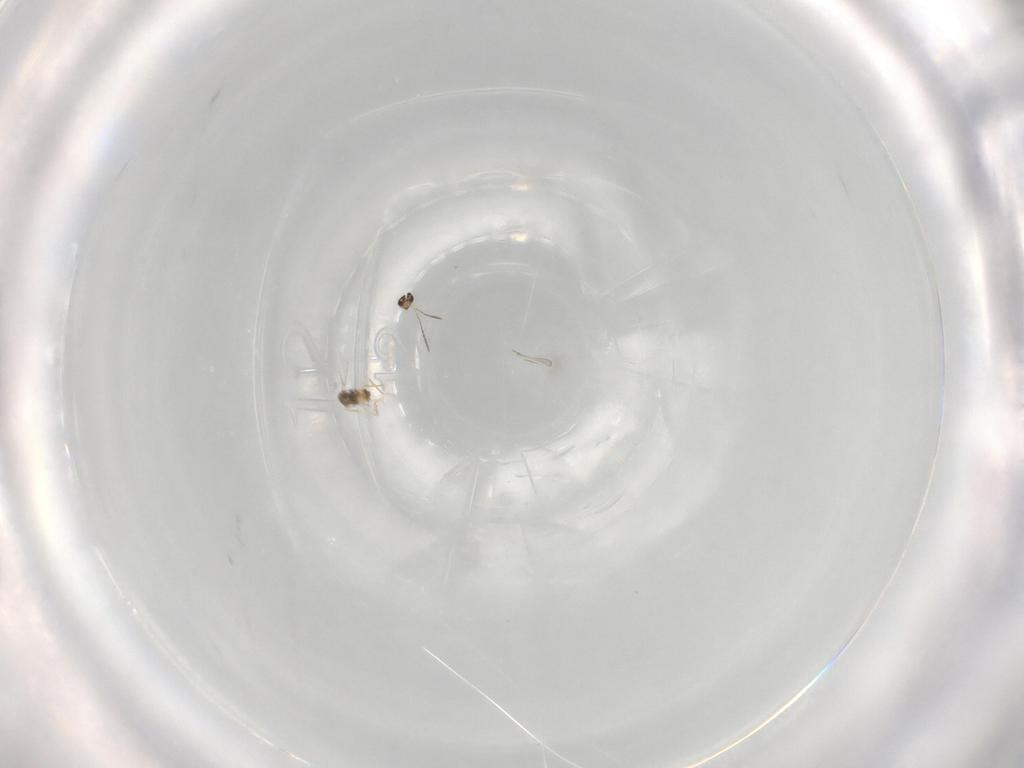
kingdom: Animalia
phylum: Arthropoda
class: Insecta
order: Hymenoptera
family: Mymaridae
